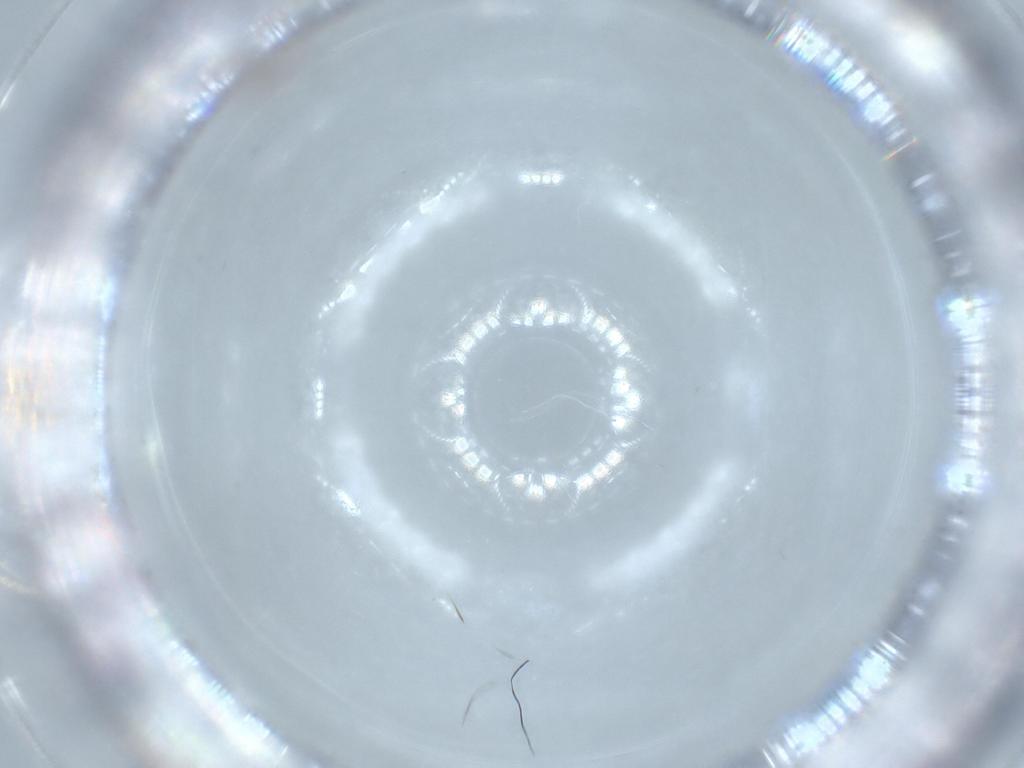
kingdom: Animalia
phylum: Arthropoda
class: Insecta
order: Diptera
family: Cecidomyiidae
